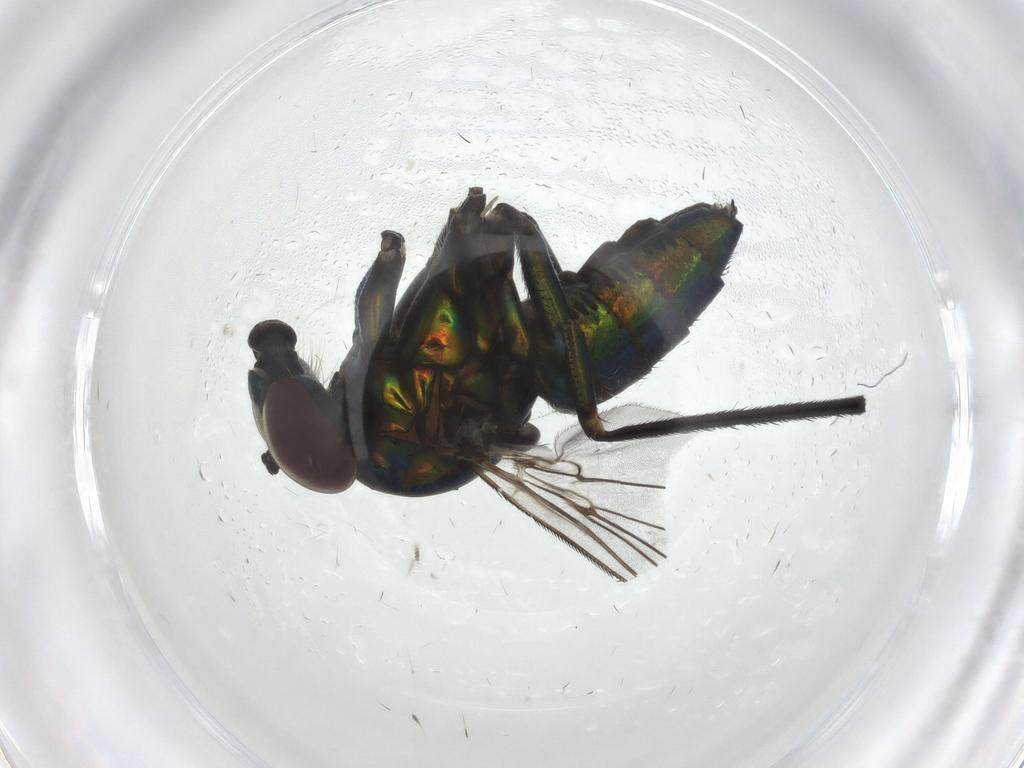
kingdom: Animalia
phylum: Arthropoda
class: Insecta
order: Diptera
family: Dolichopodidae
